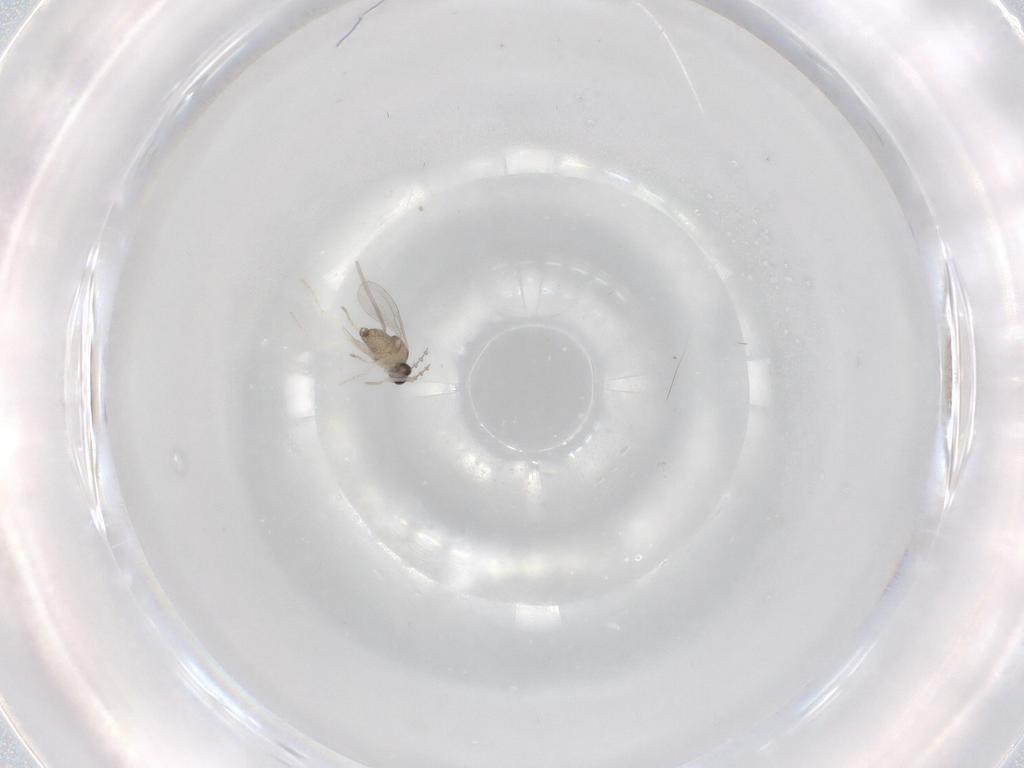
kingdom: Animalia
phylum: Arthropoda
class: Insecta
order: Diptera
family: Cecidomyiidae
